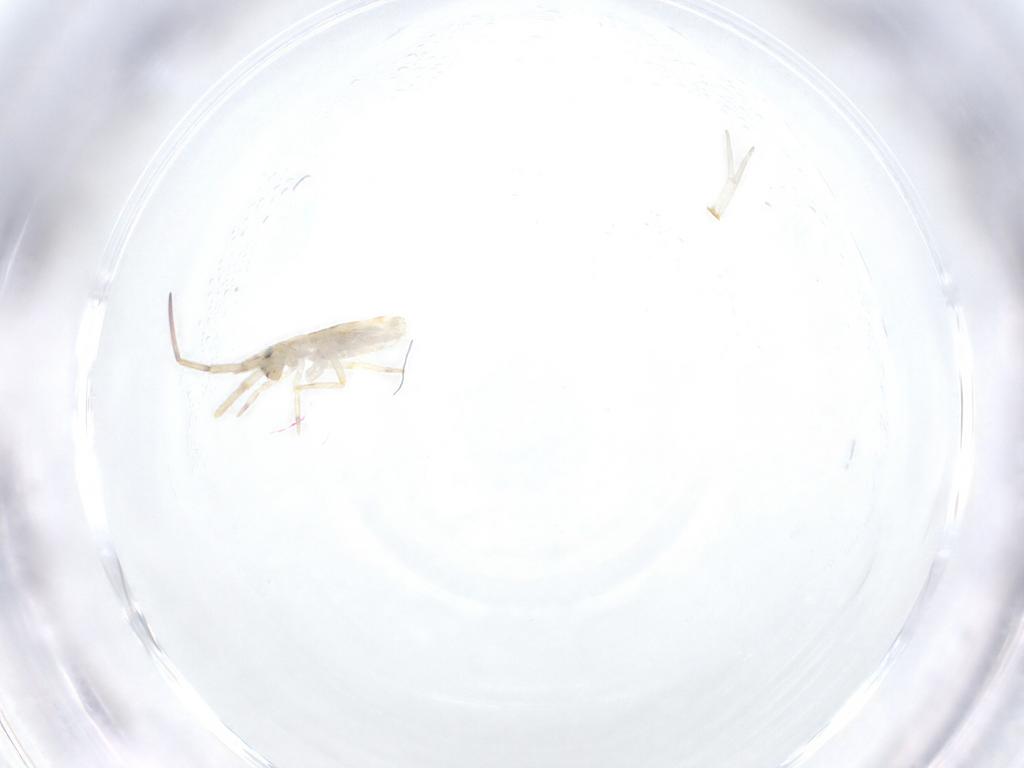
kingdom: Animalia
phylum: Arthropoda
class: Collembola
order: Entomobryomorpha
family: Entomobryidae
